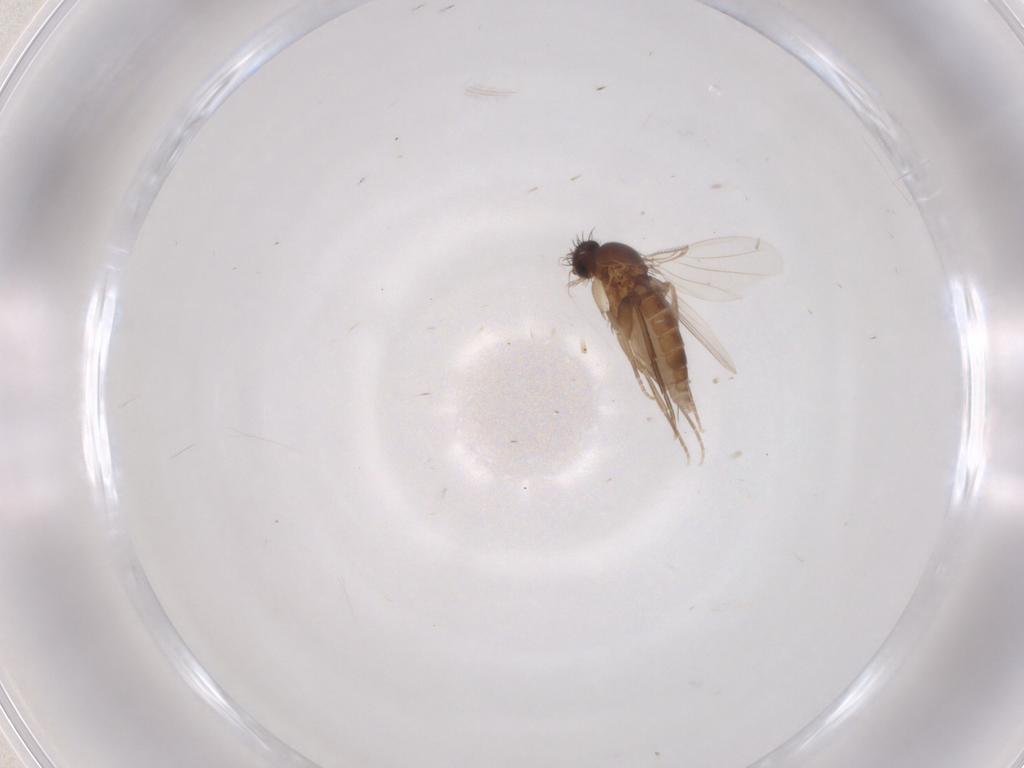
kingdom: Animalia
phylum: Arthropoda
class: Insecta
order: Diptera
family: Phoridae
